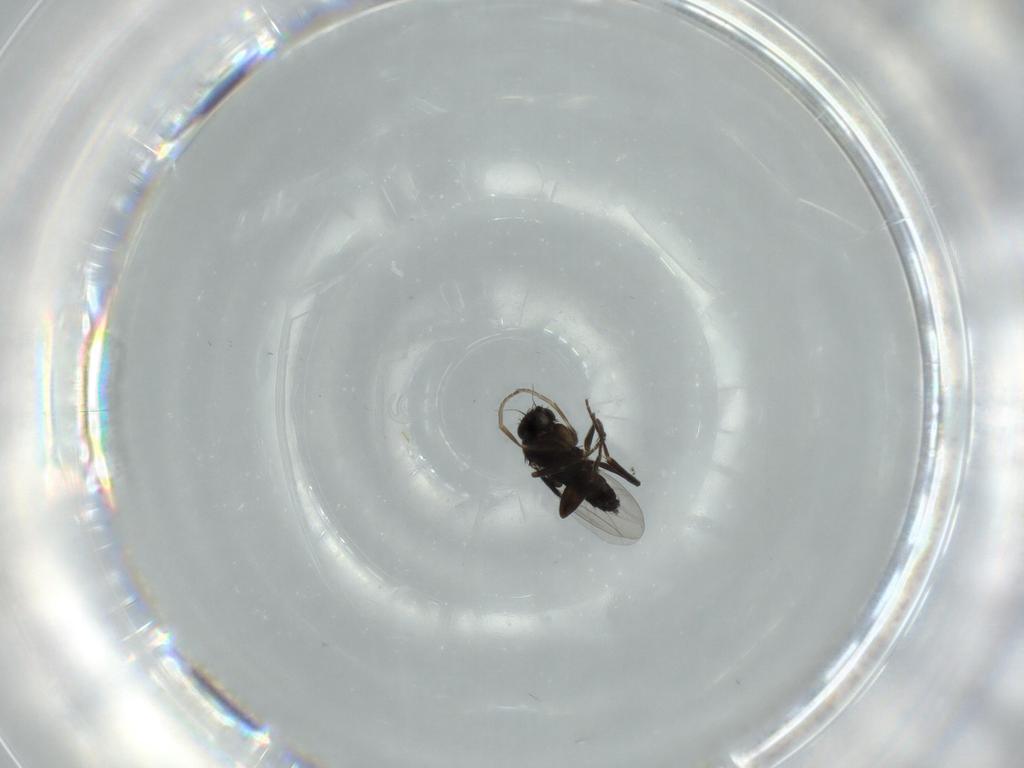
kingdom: Animalia
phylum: Arthropoda
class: Insecta
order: Diptera
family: Phoridae
